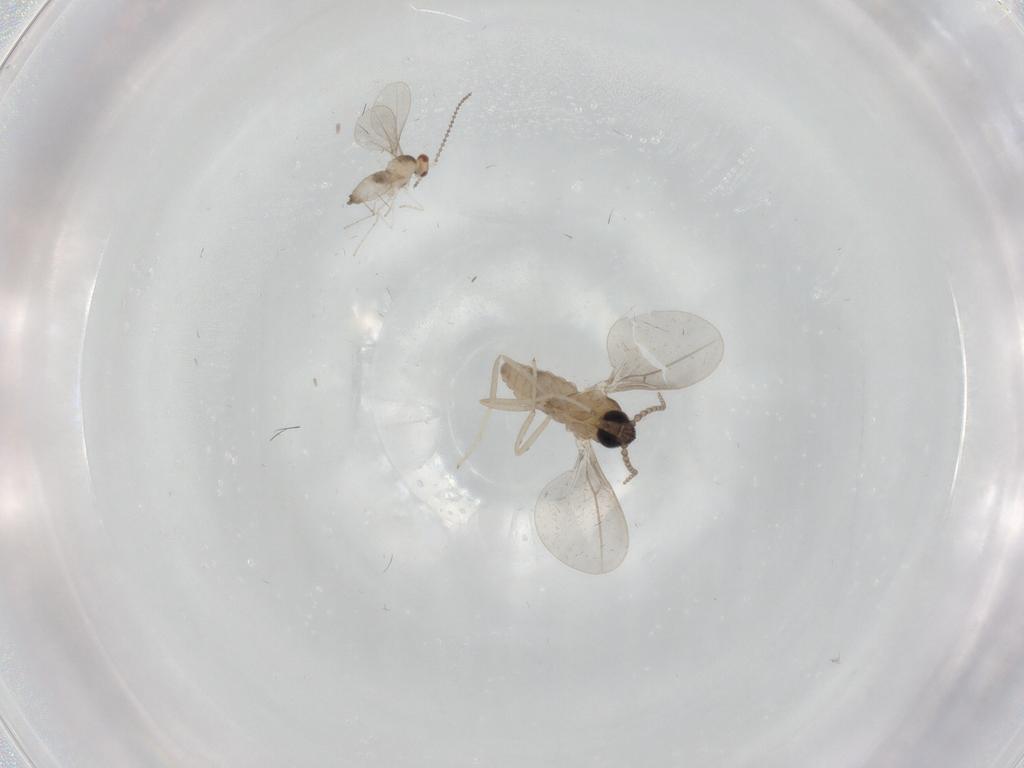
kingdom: Animalia
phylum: Arthropoda
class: Insecta
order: Diptera
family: Cecidomyiidae
